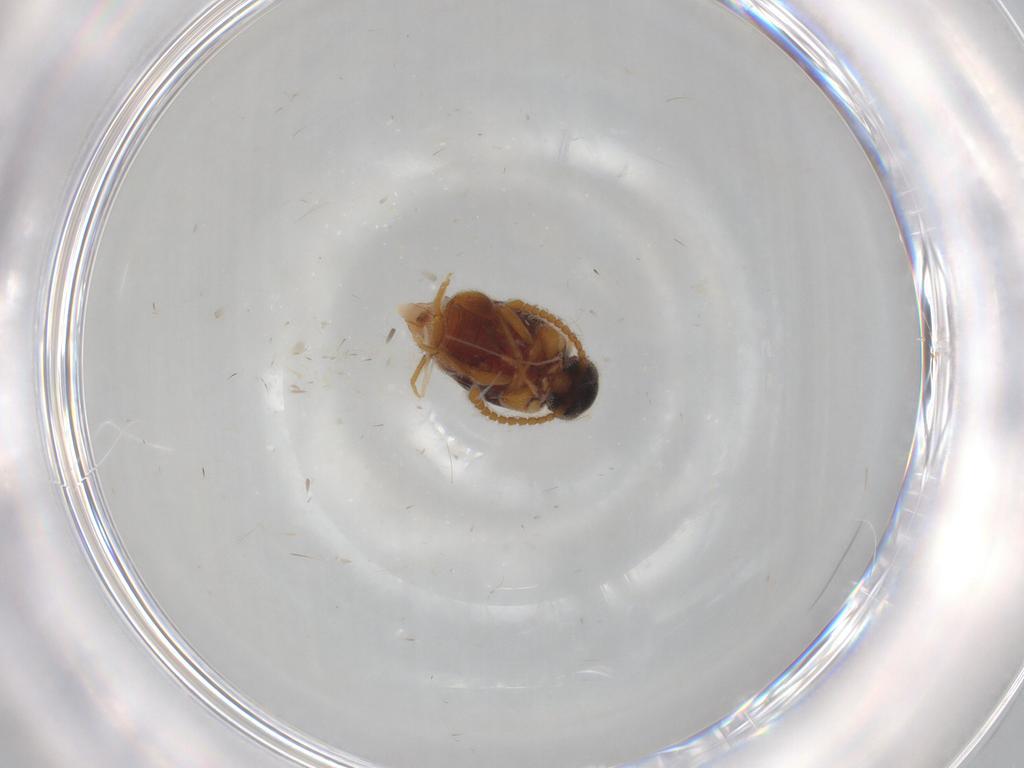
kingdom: Animalia
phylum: Arthropoda
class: Insecta
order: Coleoptera
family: Aderidae
